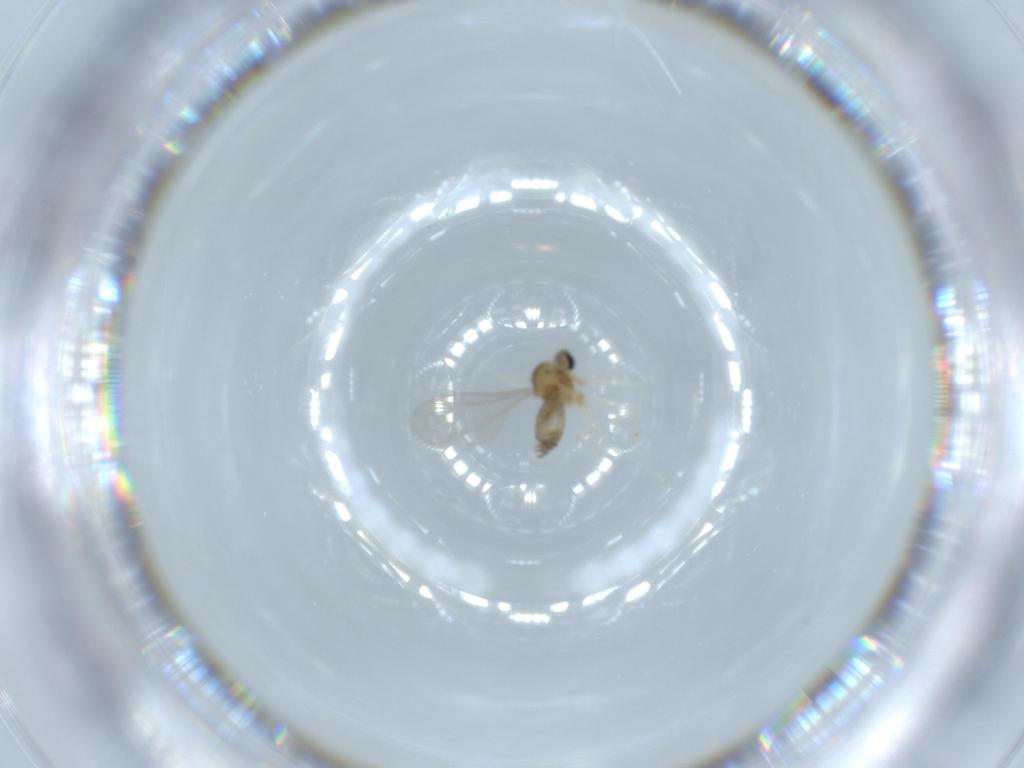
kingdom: Animalia
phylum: Arthropoda
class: Insecta
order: Diptera
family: Cecidomyiidae
